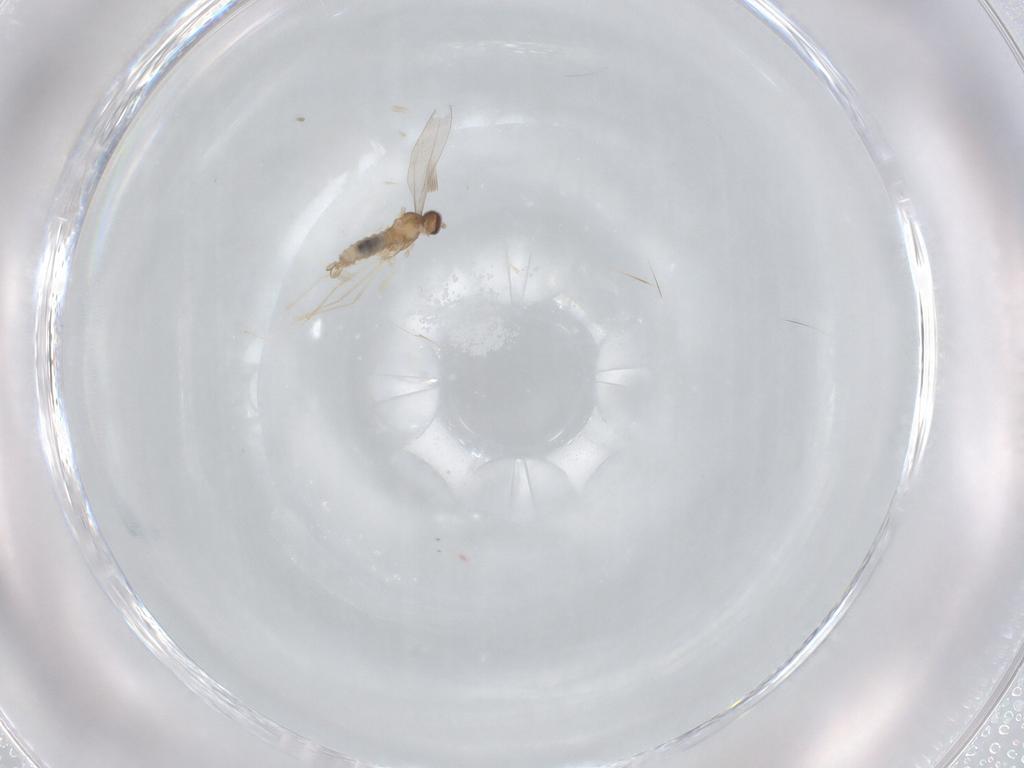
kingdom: Animalia
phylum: Arthropoda
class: Insecta
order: Diptera
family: Cecidomyiidae
